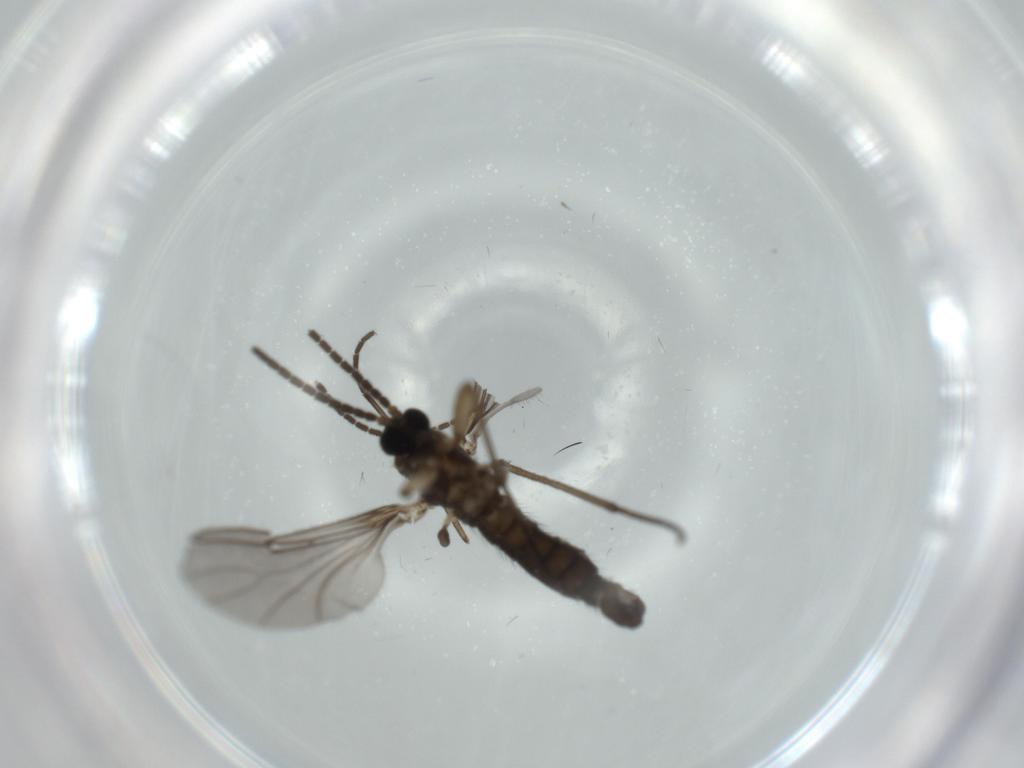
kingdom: Animalia
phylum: Arthropoda
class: Insecta
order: Diptera
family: Sciaridae
